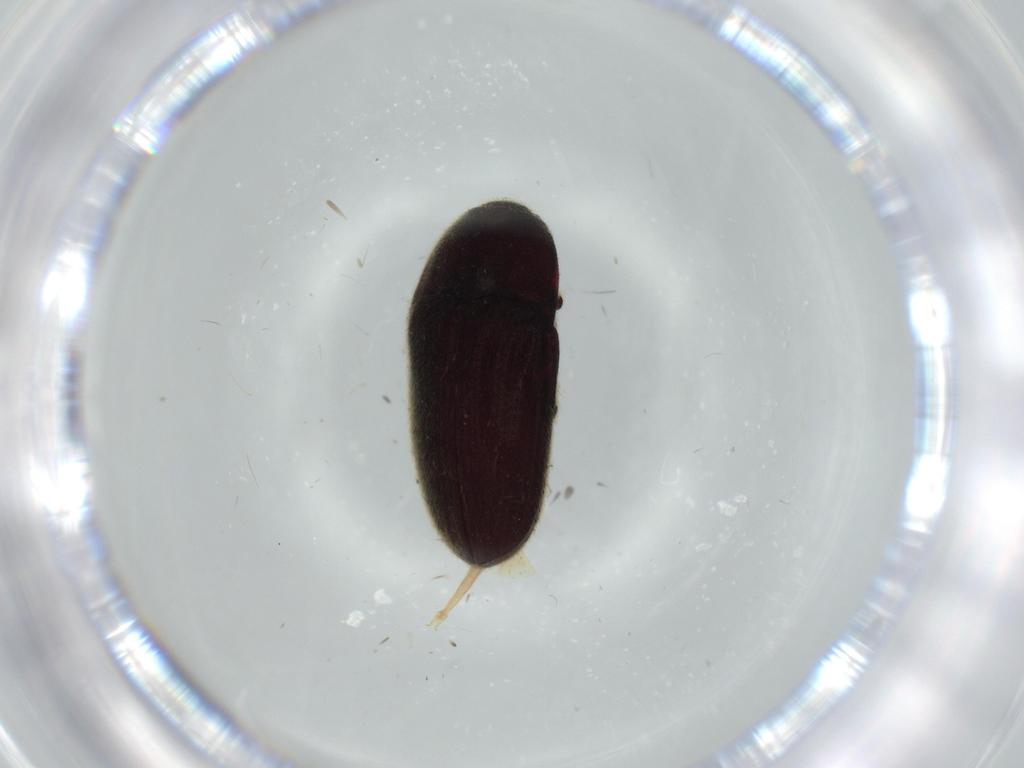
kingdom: Animalia
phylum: Arthropoda
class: Insecta
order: Coleoptera
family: Throscidae
